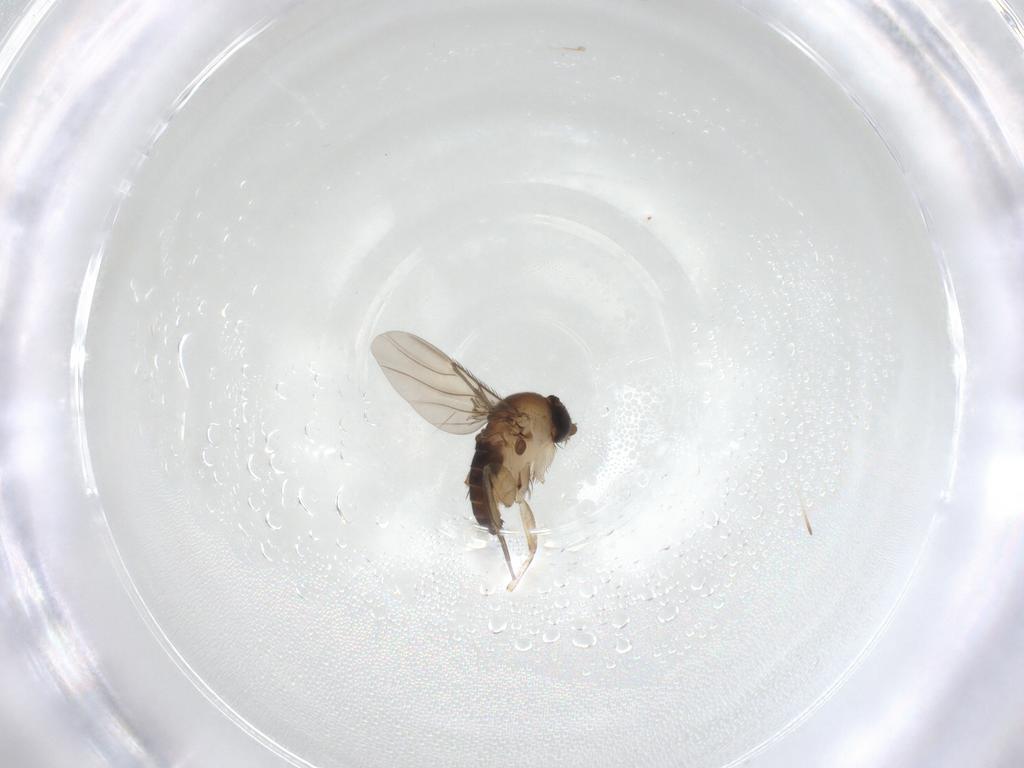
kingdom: Animalia
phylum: Arthropoda
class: Insecta
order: Diptera
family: Phoridae
